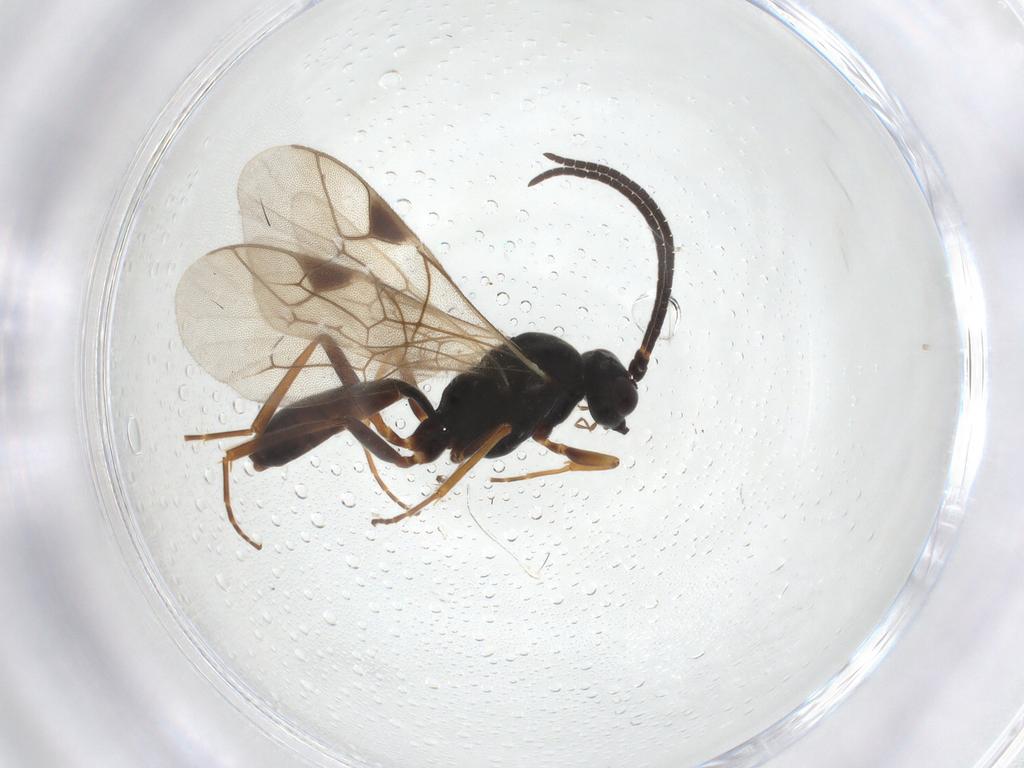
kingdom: Animalia
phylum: Arthropoda
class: Insecta
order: Hymenoptera
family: Ichneumonidae
